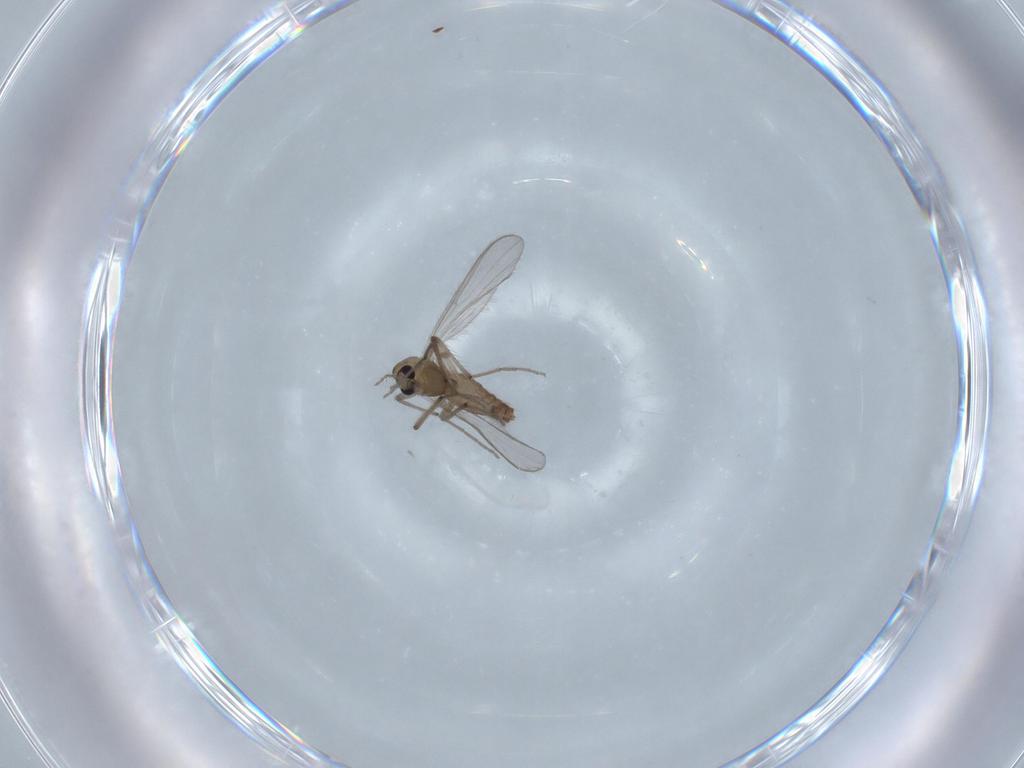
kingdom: Animalia
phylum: Arthropoda
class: Insecta
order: Diptera
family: Chironomidae
